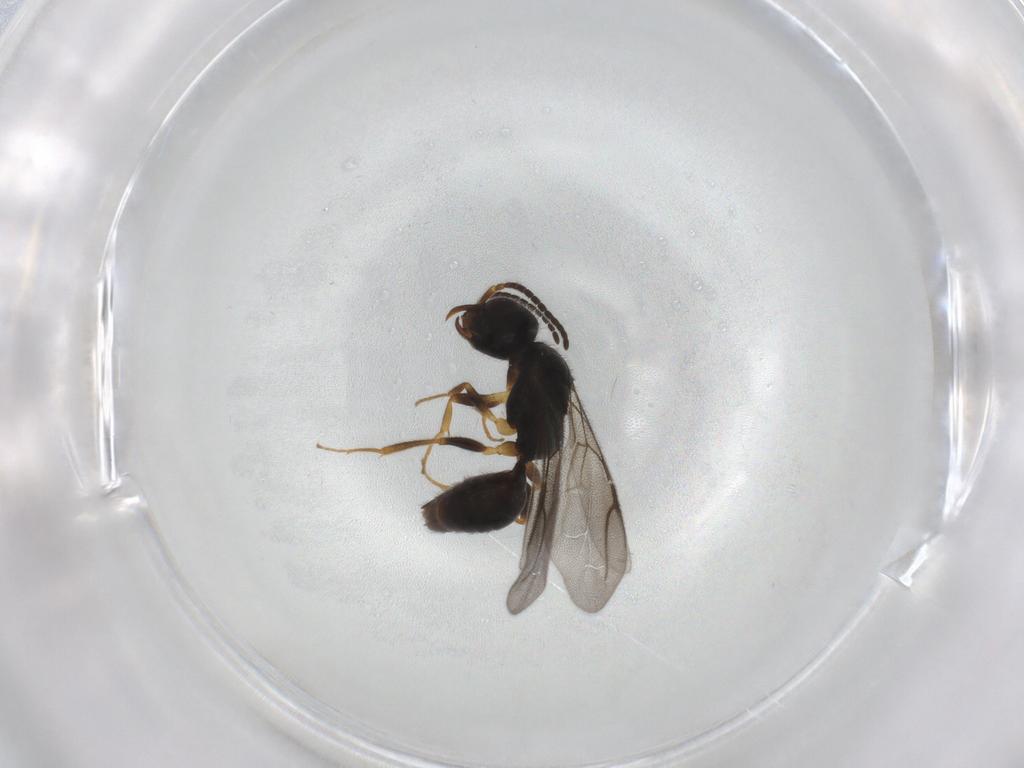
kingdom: Animalia
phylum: Arthropoda
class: Insecta
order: Hymenoptera
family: Bethylidae
